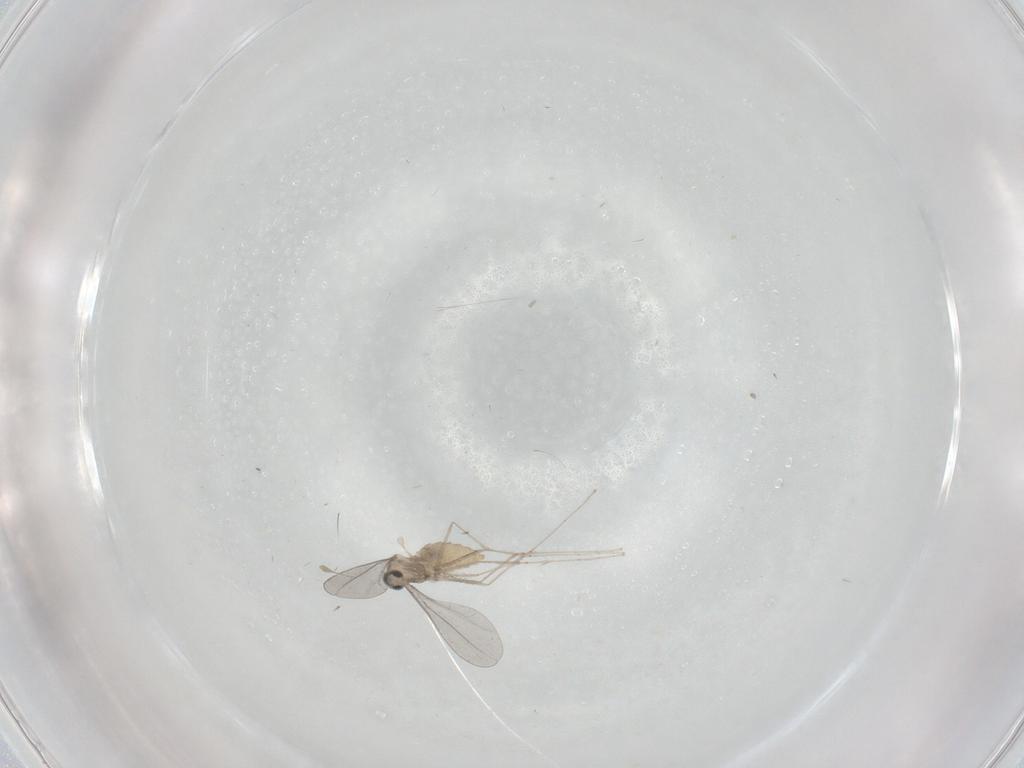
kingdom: Animalia
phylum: Arthropoda
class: Insecta
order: Diptera
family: Cecidomyiidae
